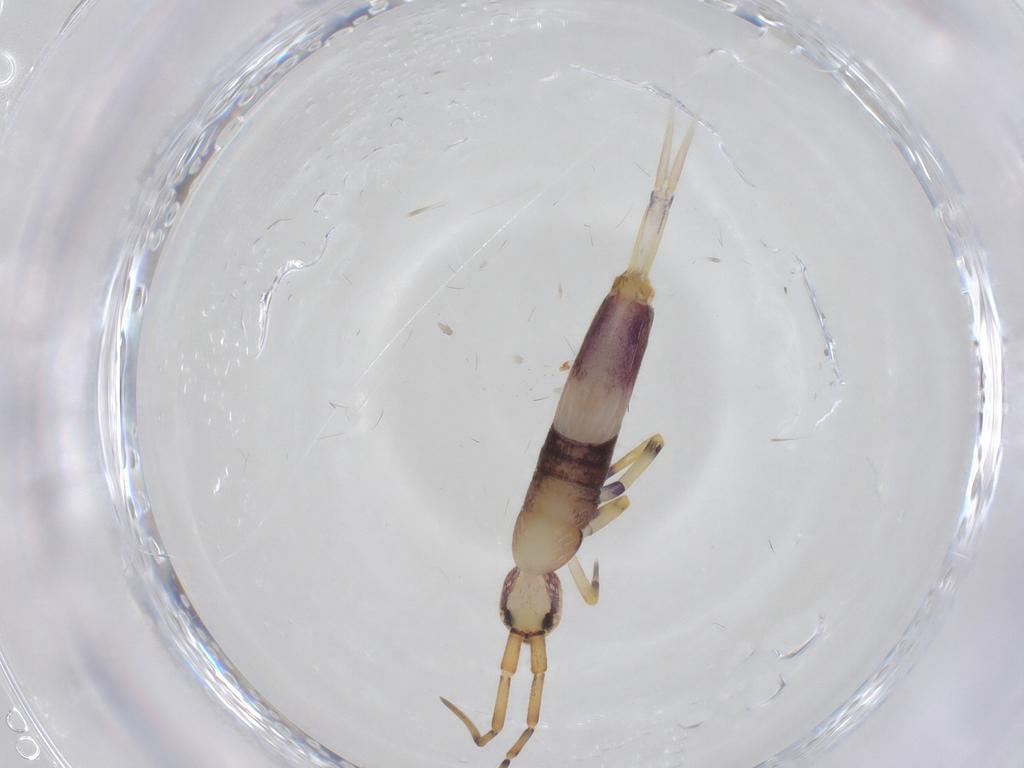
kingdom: Animalia
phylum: Arthropoda
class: Collembola
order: Entomobryomorpha
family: Entomobryidae
